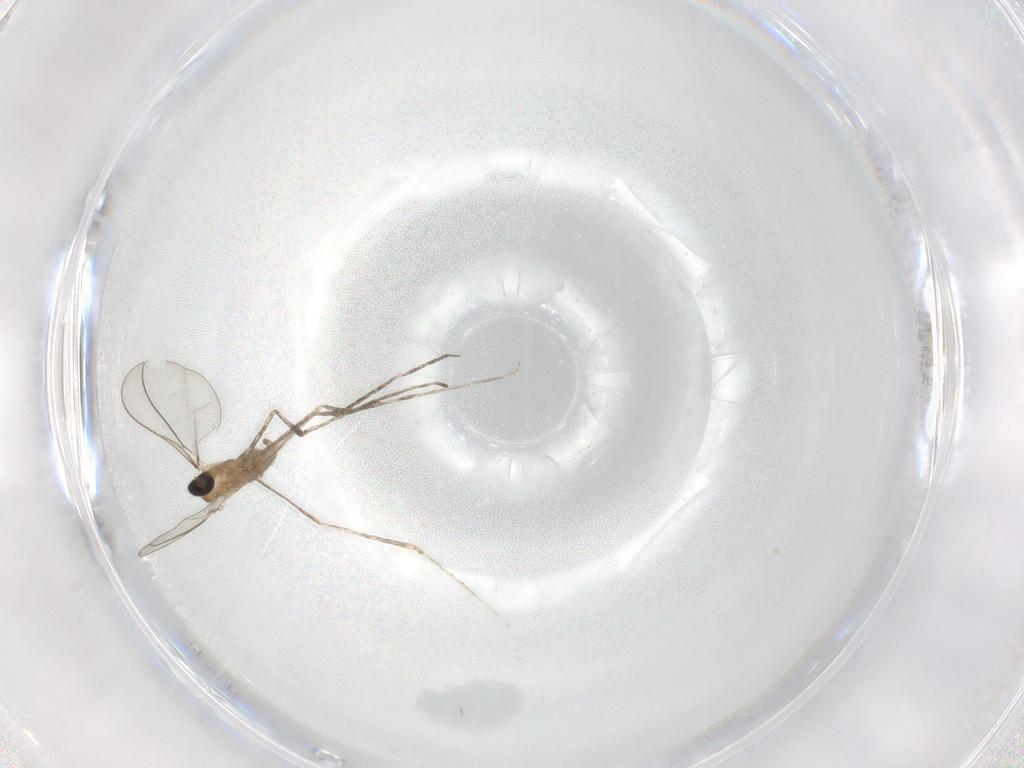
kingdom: Animalia
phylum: Arthropoda
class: Insecta
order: Diptera
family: Cecidomyiidae
